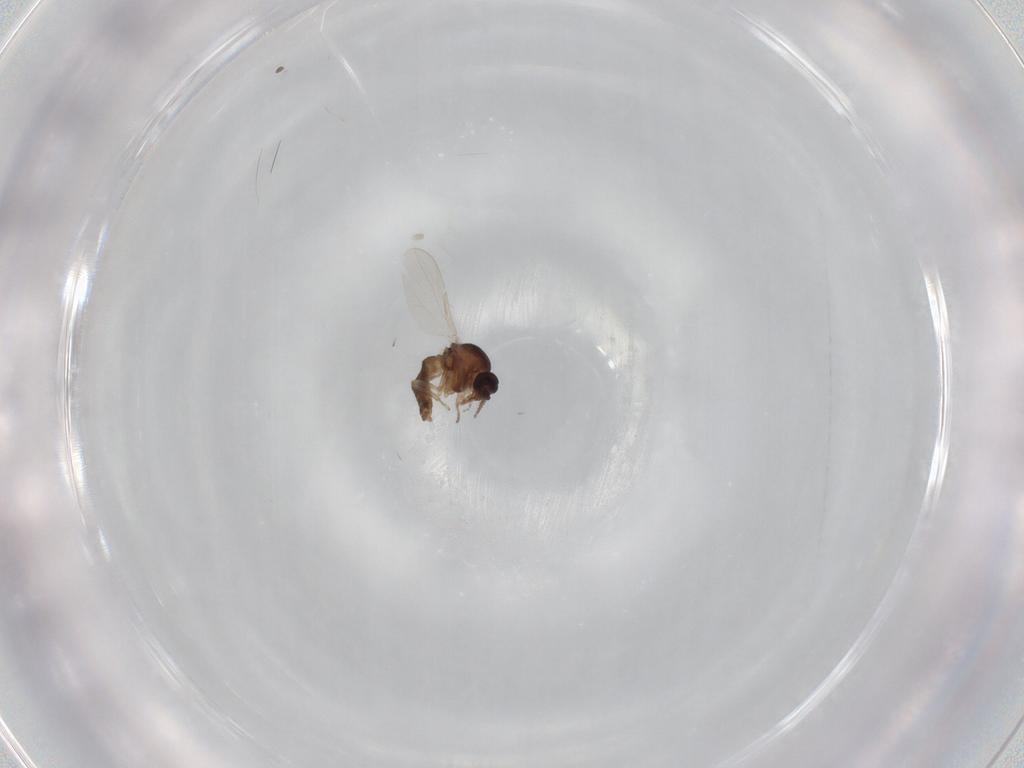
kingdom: Animalia
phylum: Arthropoda
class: Insecta
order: Diptera
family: Ceratopogonidae
